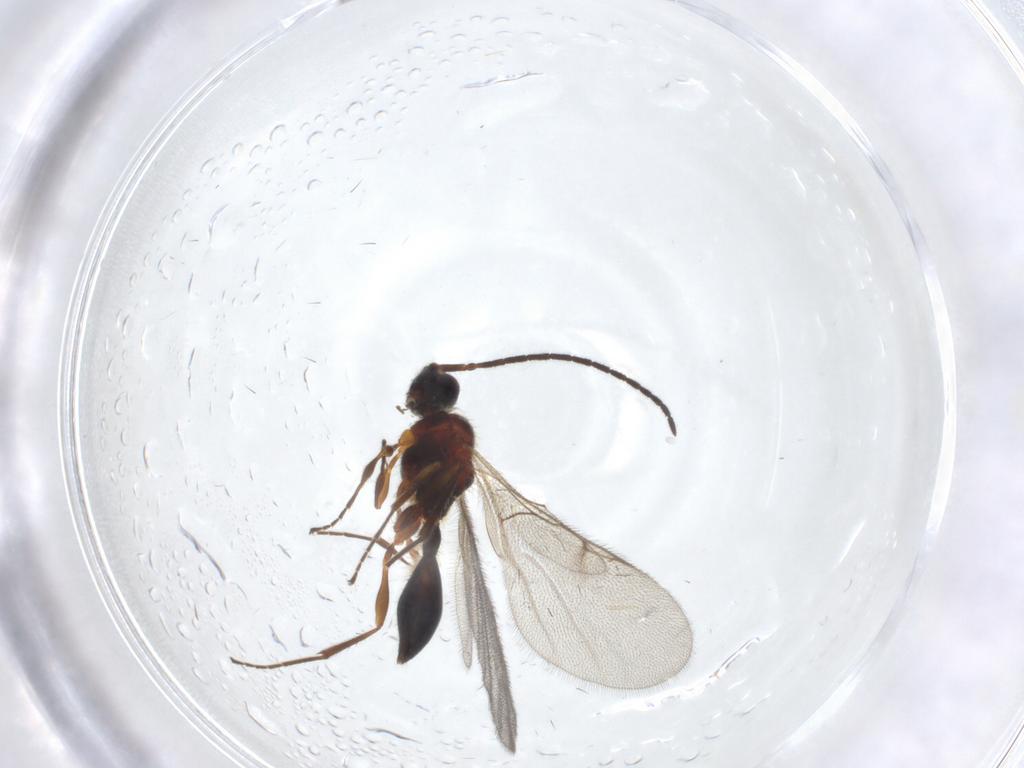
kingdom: Animalia
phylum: Arthropoda
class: Insecta
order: Hymenoptera
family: Diapriidae
